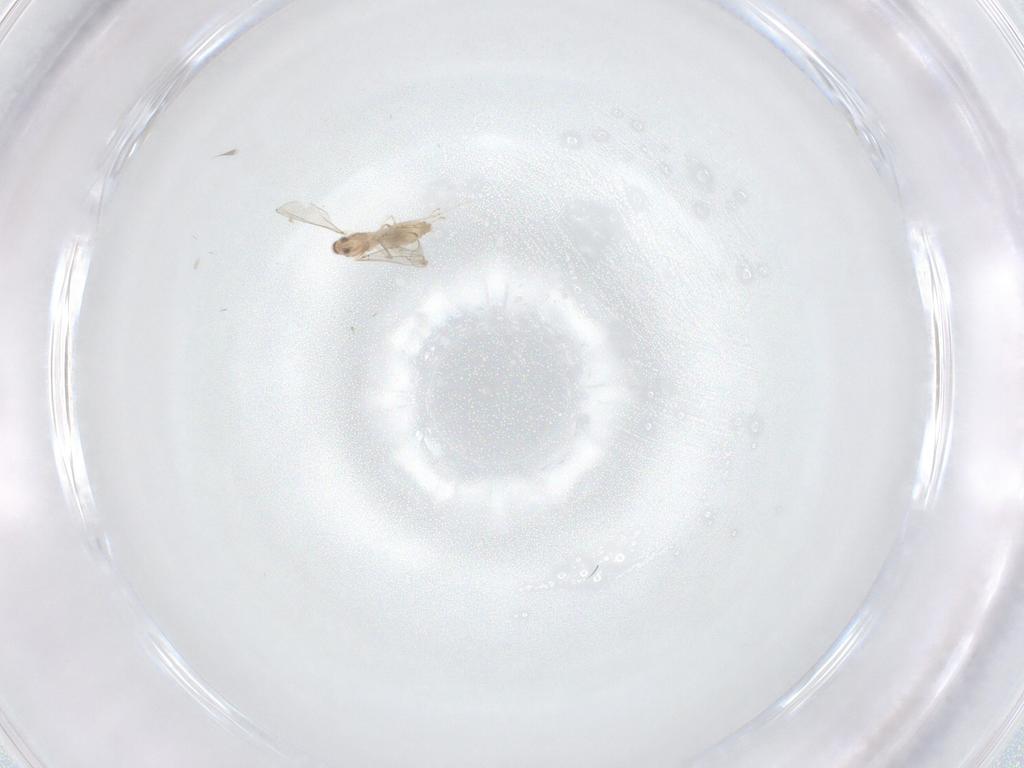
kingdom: Animalia
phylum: Arthropoda
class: Insecta
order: Diptera
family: Cecidomyiidae
